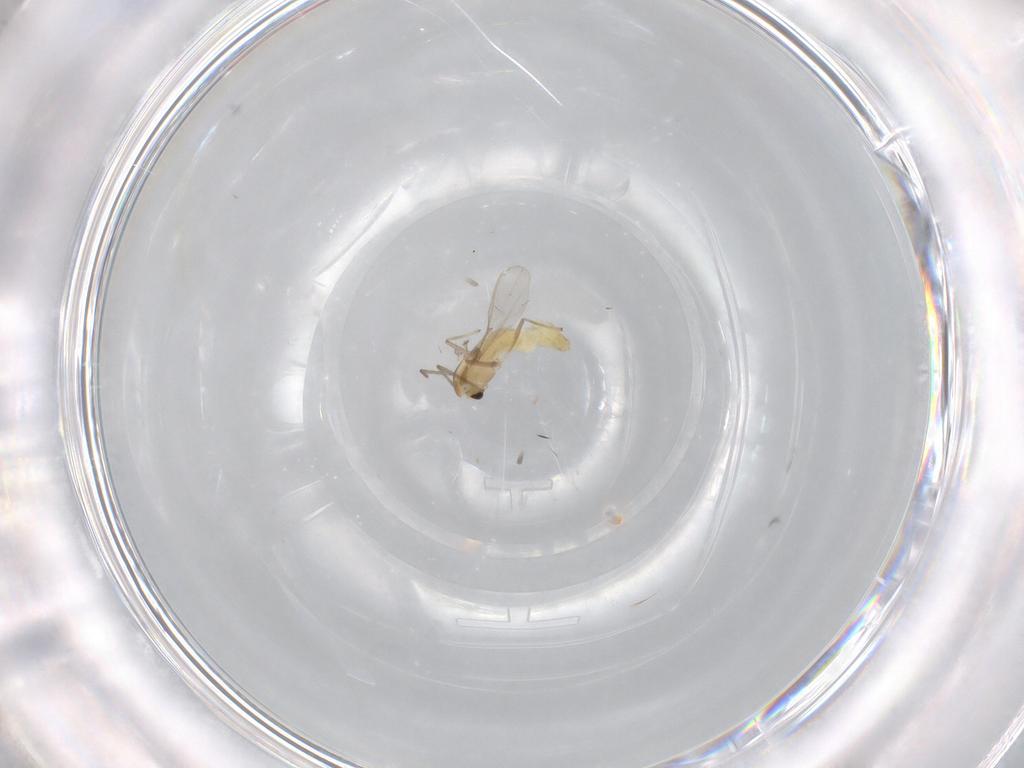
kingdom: Animalia
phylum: Arthropoda
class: Insecta
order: Diptera
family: Chironomidae
